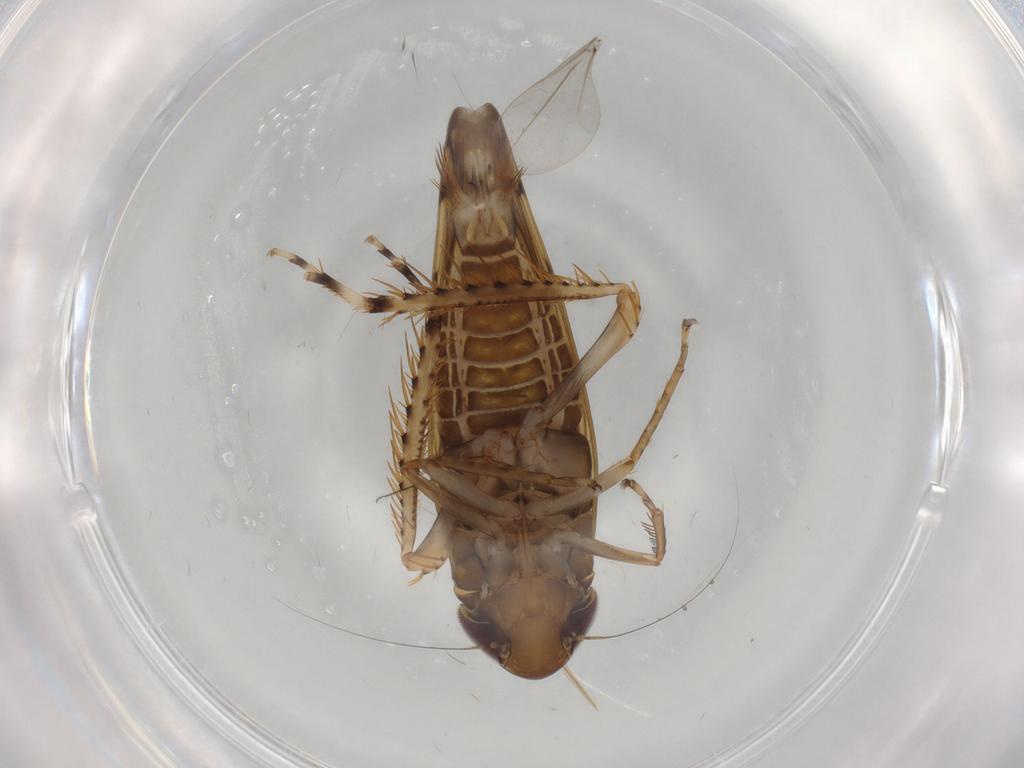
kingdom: Animalia
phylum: Arthropoda
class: Insecta
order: Hemiptera
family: Cicadellidae
